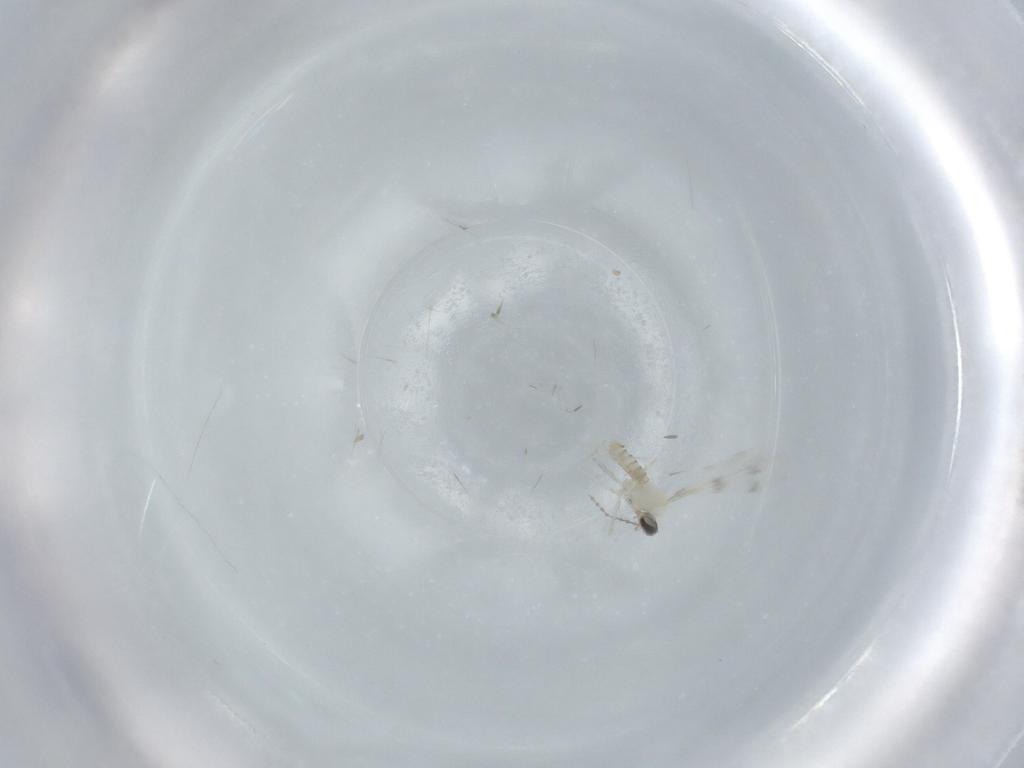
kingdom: Animalia
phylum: Arthropoda
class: Insecta
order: Diptera
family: Cecidomyiidae
